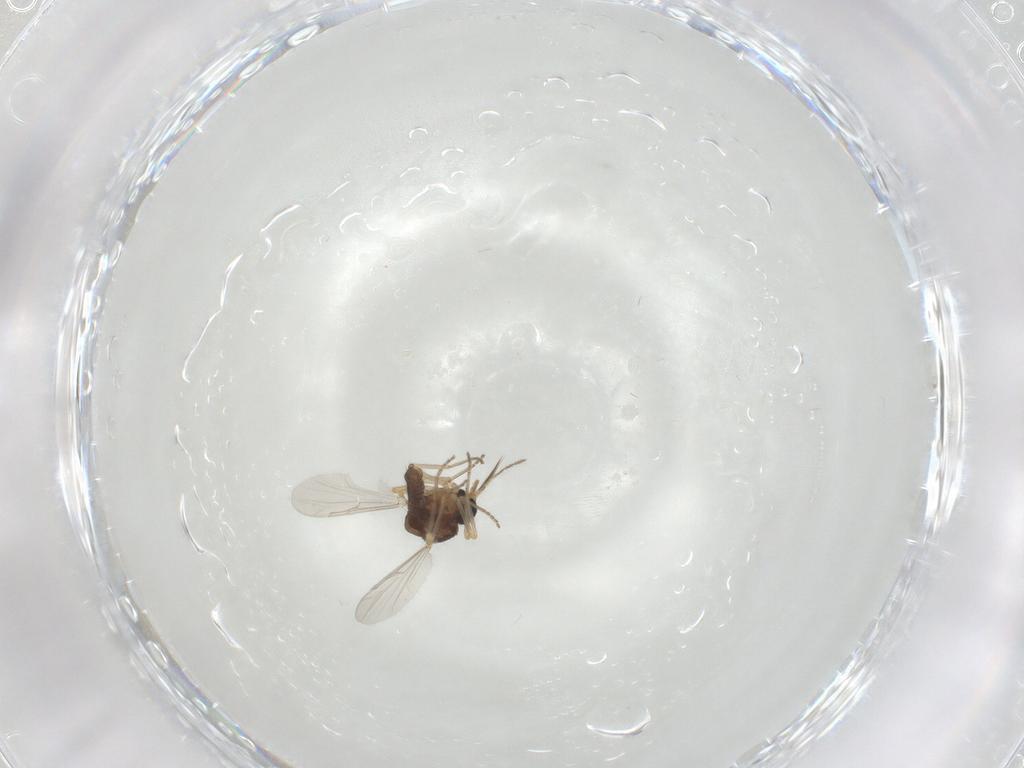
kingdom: Animalia
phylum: Arthropoda
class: Insecta
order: Diptera
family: Ceratopogonidae
